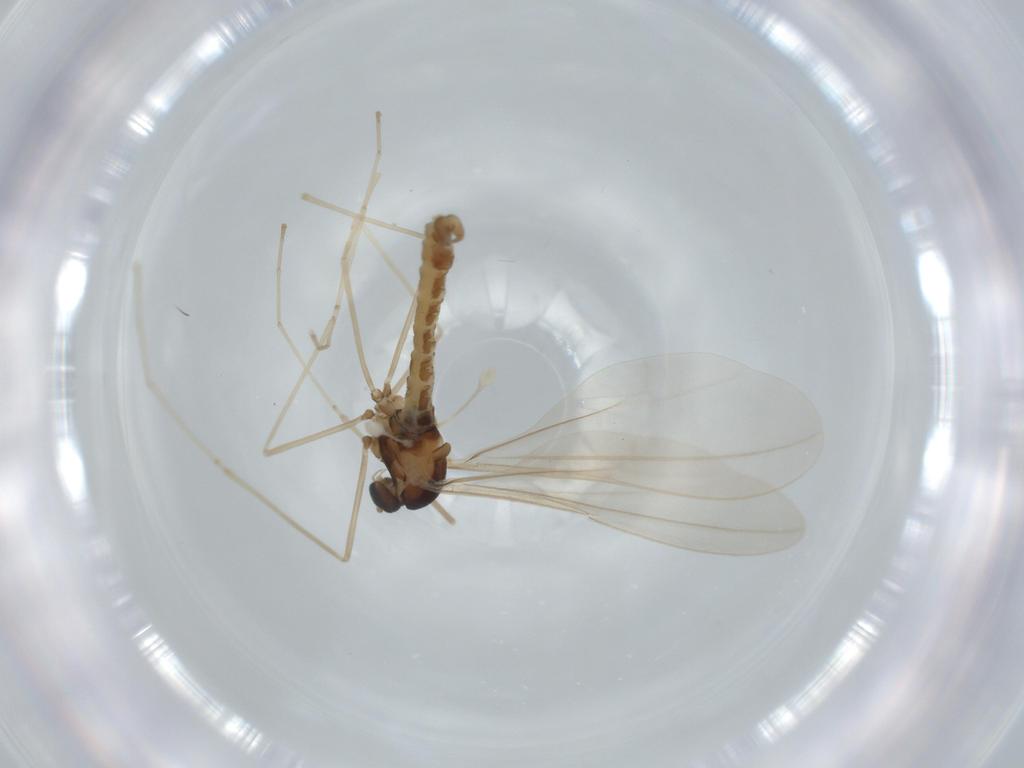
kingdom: Animalia
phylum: Arthropoda
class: Insecta
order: Diptera
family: Cecidomyiidae
